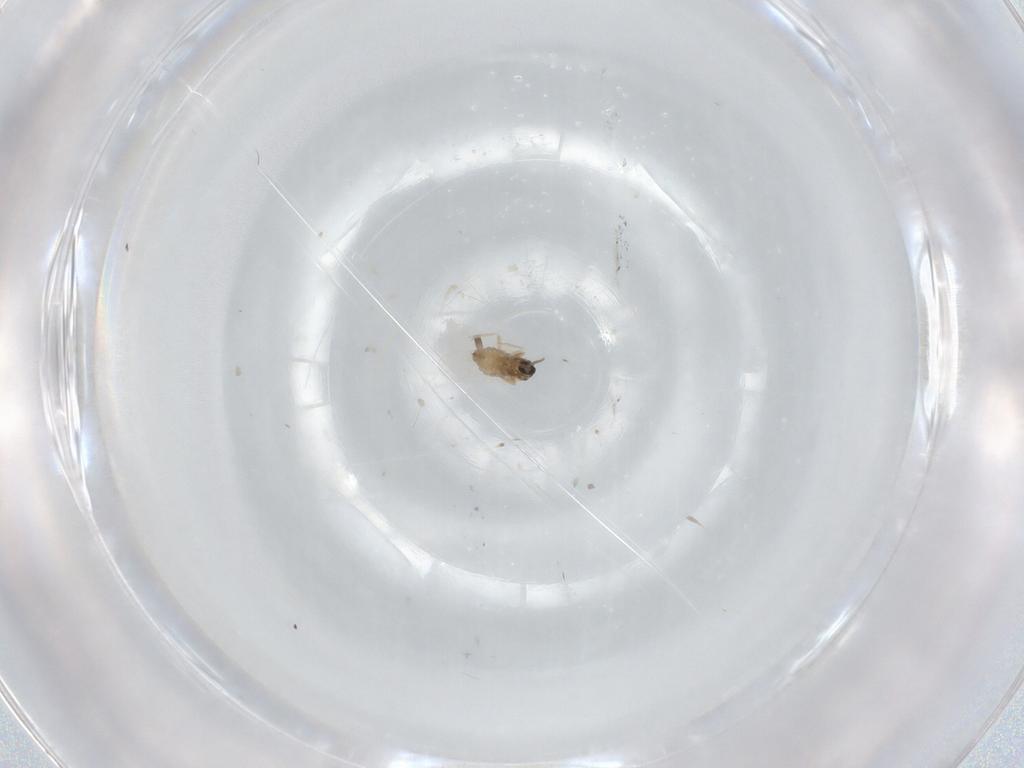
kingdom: Animalia
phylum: Arthropoda
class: Insecta
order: Diptera
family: Cecidomyiidae
